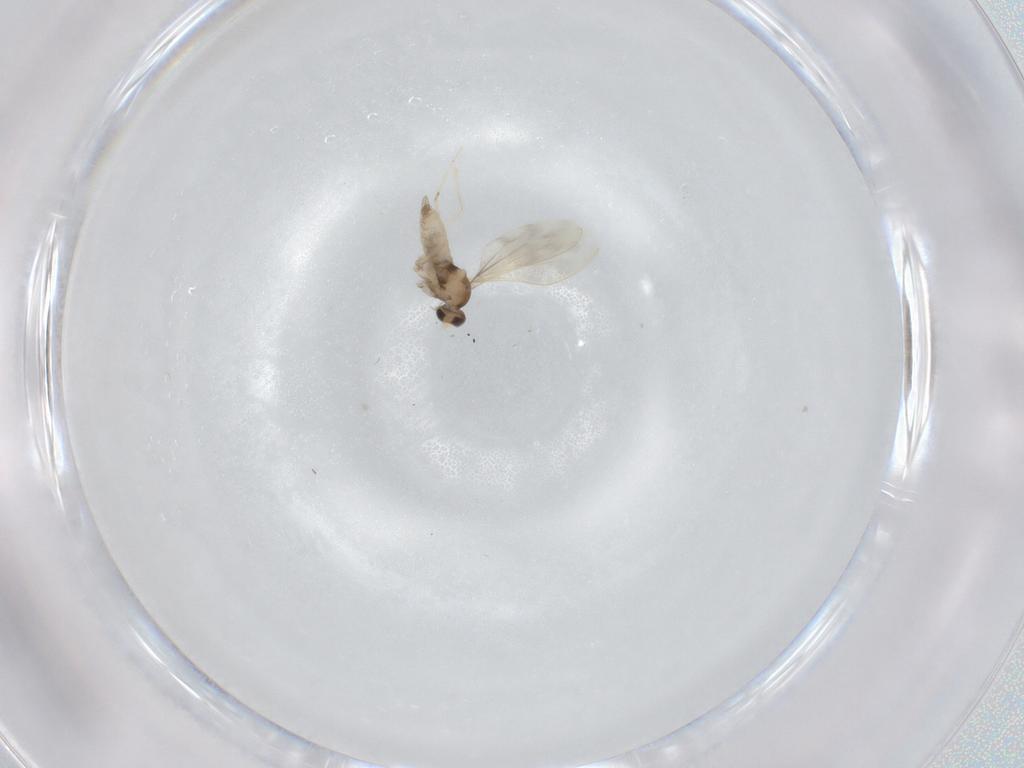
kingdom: Animalia
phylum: Arthropoda
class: Insecta
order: Diptera
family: Cecidomyiidae
